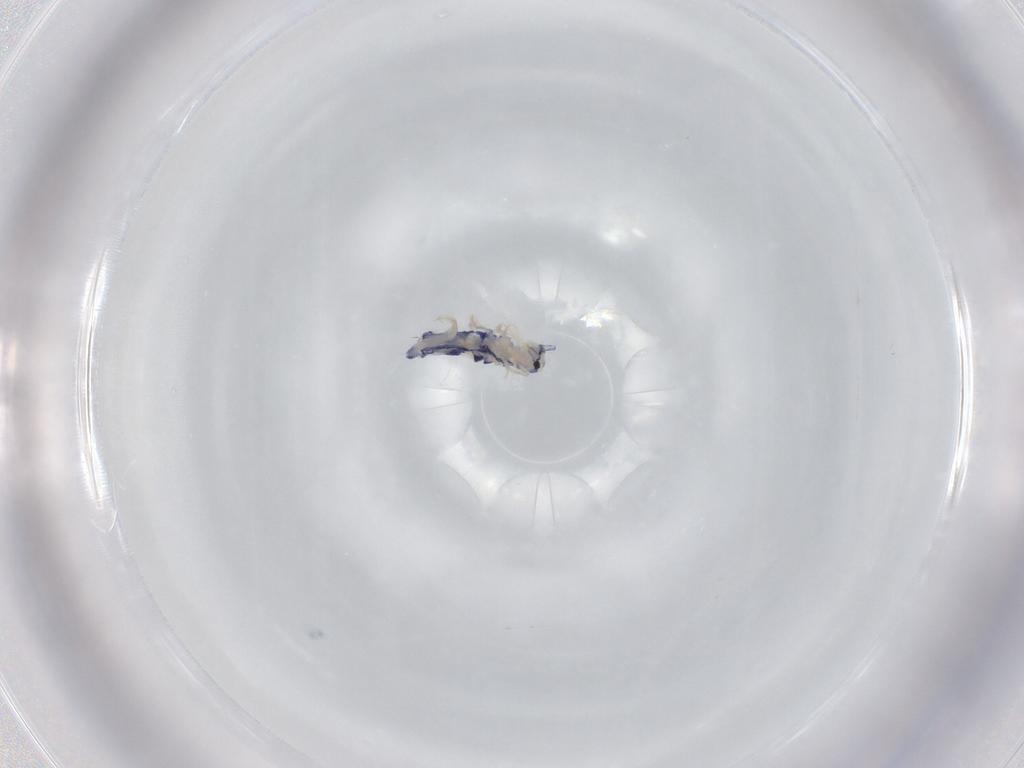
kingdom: Animalia
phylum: Arthropoda
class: Collembola
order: Entomobryomorpha
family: Entomobryidae
